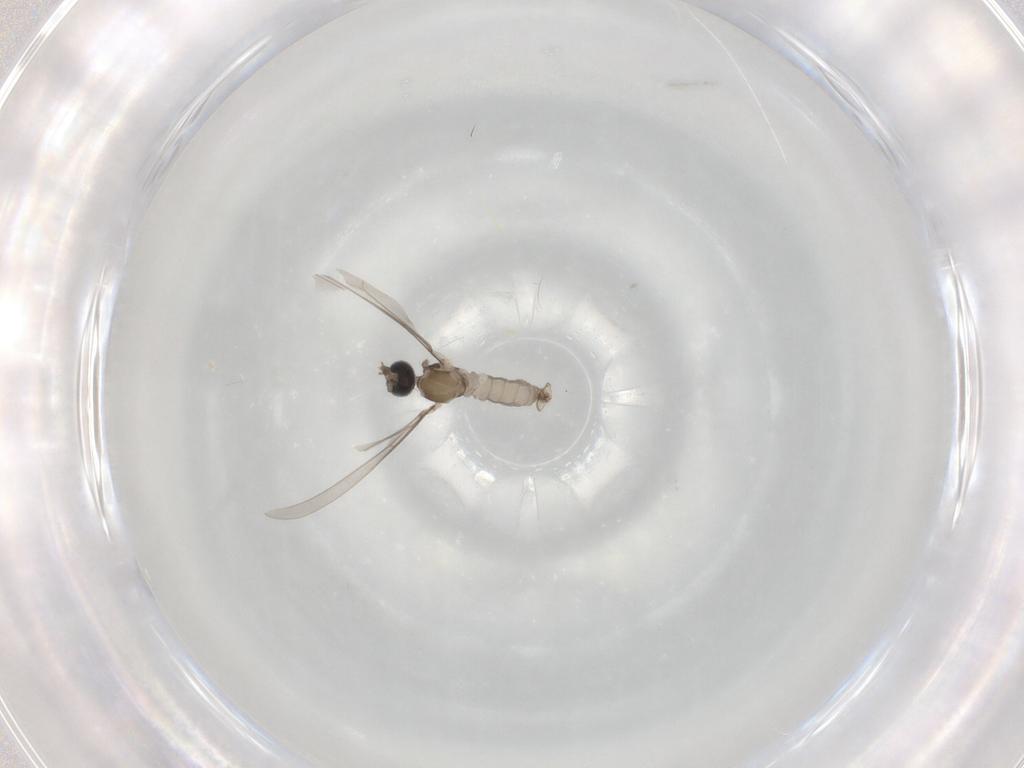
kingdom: Animalia
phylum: Arthropoda
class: Insecta
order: Diptera
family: Cecidomyiidae
